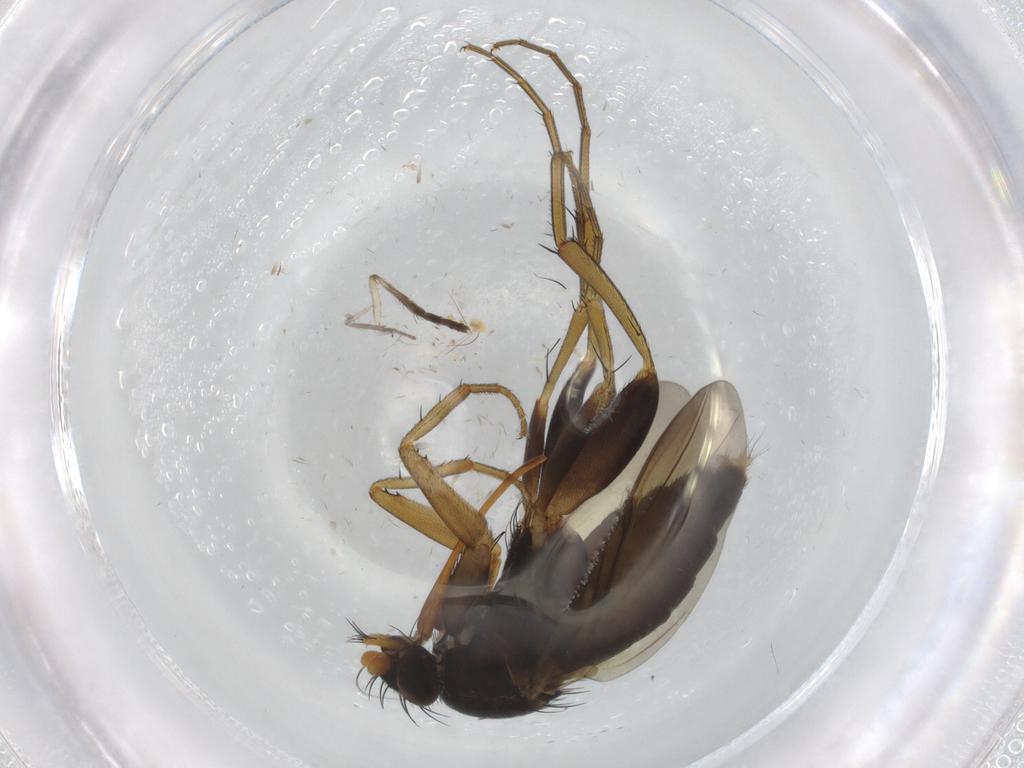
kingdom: Animalia
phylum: Arthropoda
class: Insecta
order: Diptera
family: Phoridae
